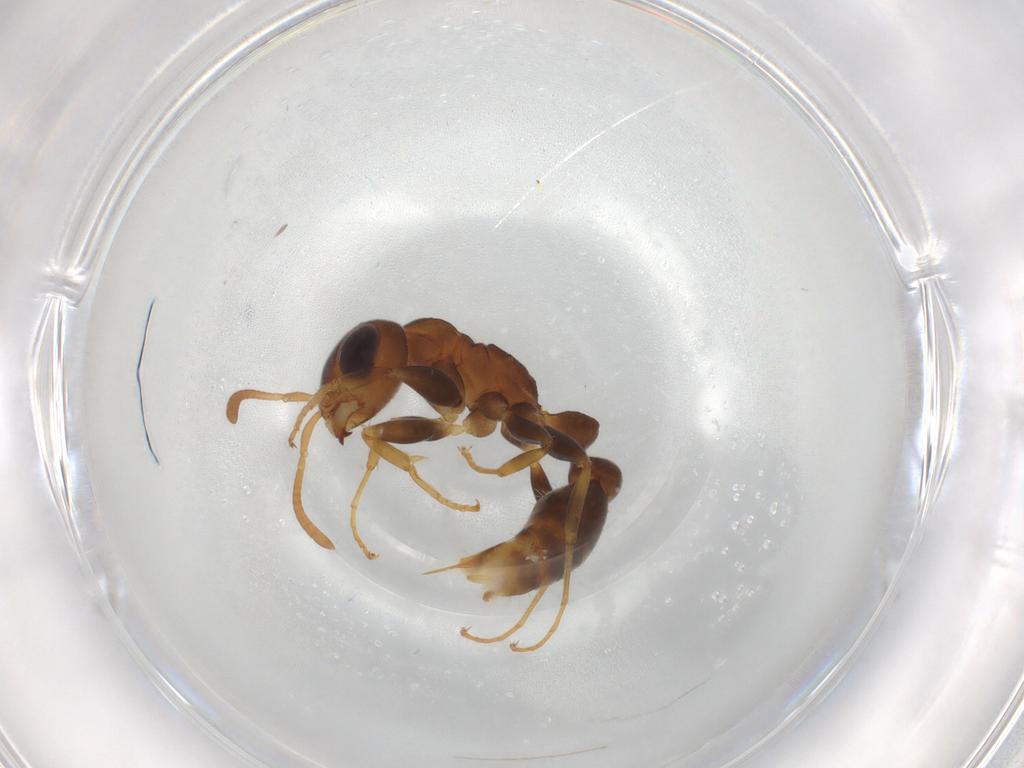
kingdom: Animalia
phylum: Arthropoda
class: Insecta
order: Hymenoptera
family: Formicidae
